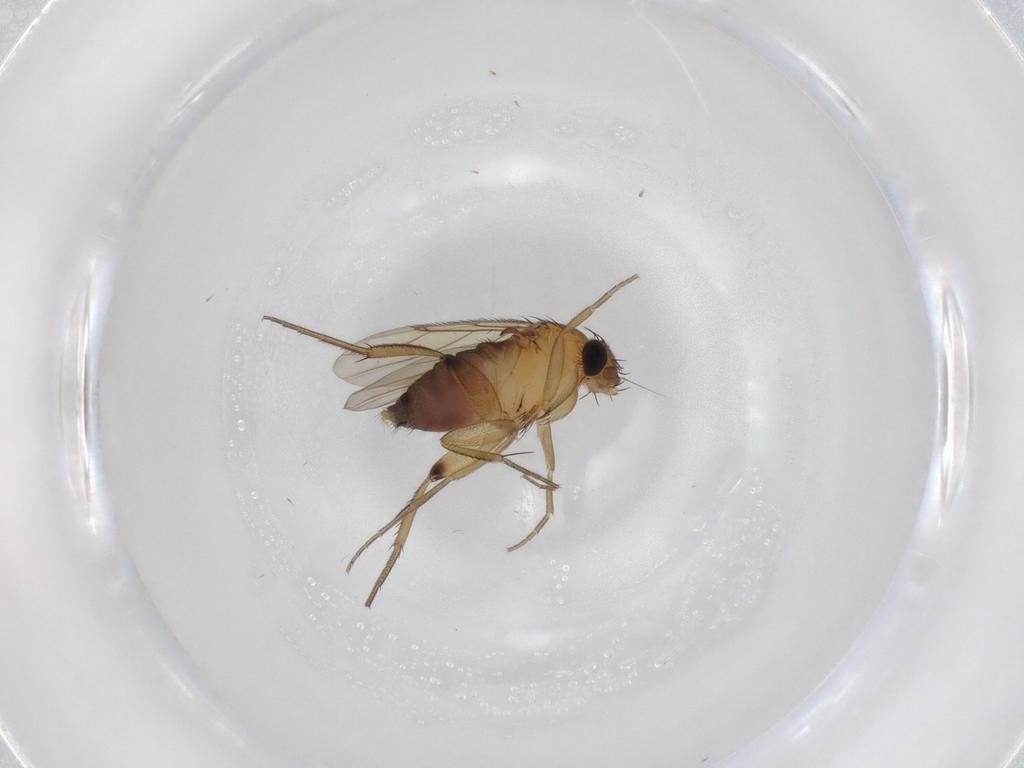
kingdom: Animalia
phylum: Arthropoda
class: Insecta
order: Diptera
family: Phoridae
